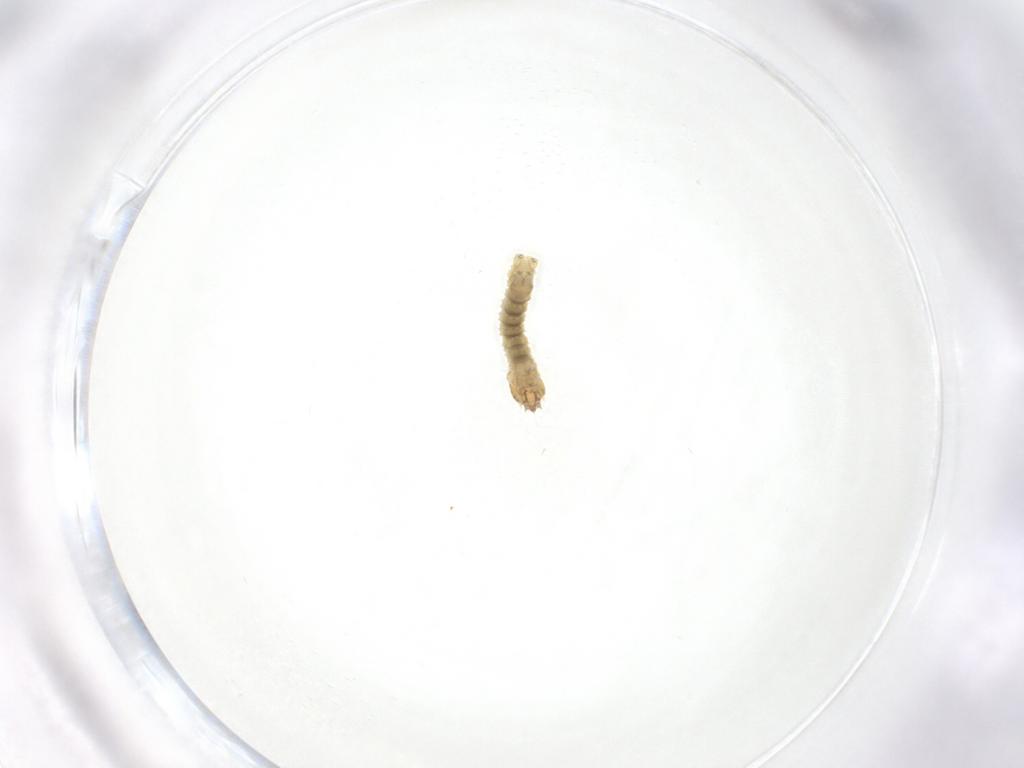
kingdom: Animalia
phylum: Arthropoda
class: Insecta
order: Lepidoptera
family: Geometridae
